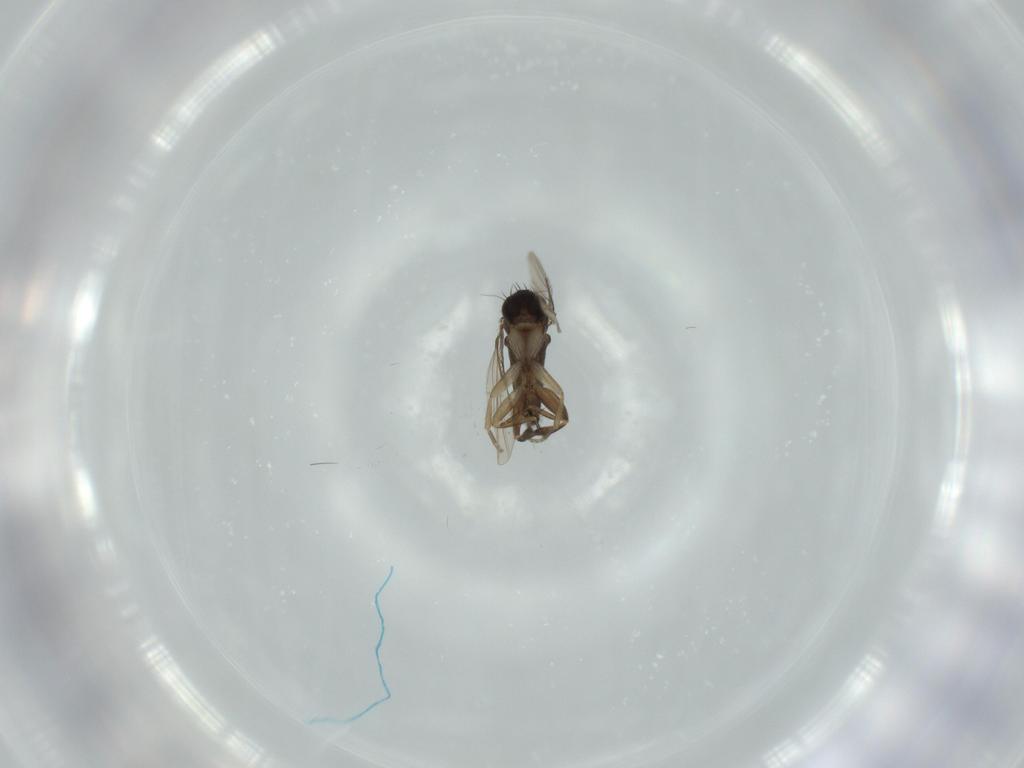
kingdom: Animalia
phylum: Arthropoda
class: Insecta
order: Diptera
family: Phoridae
